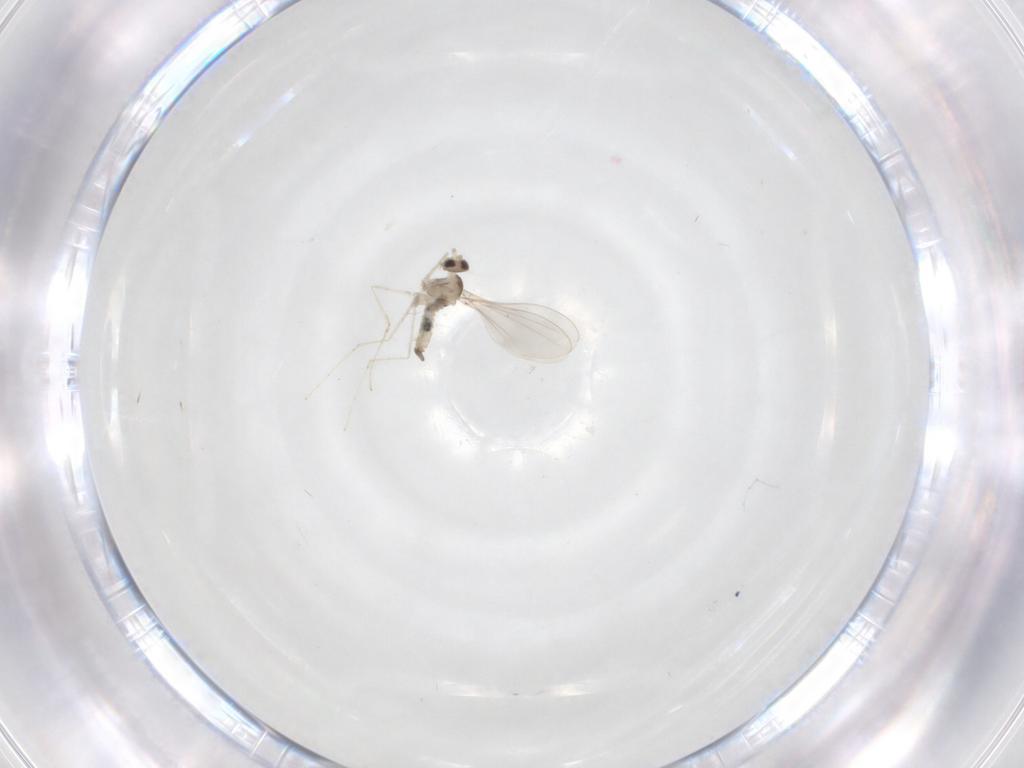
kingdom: Animalia
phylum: Arthropoda
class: Insecta
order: Diptera
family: Cecidomyiidae
